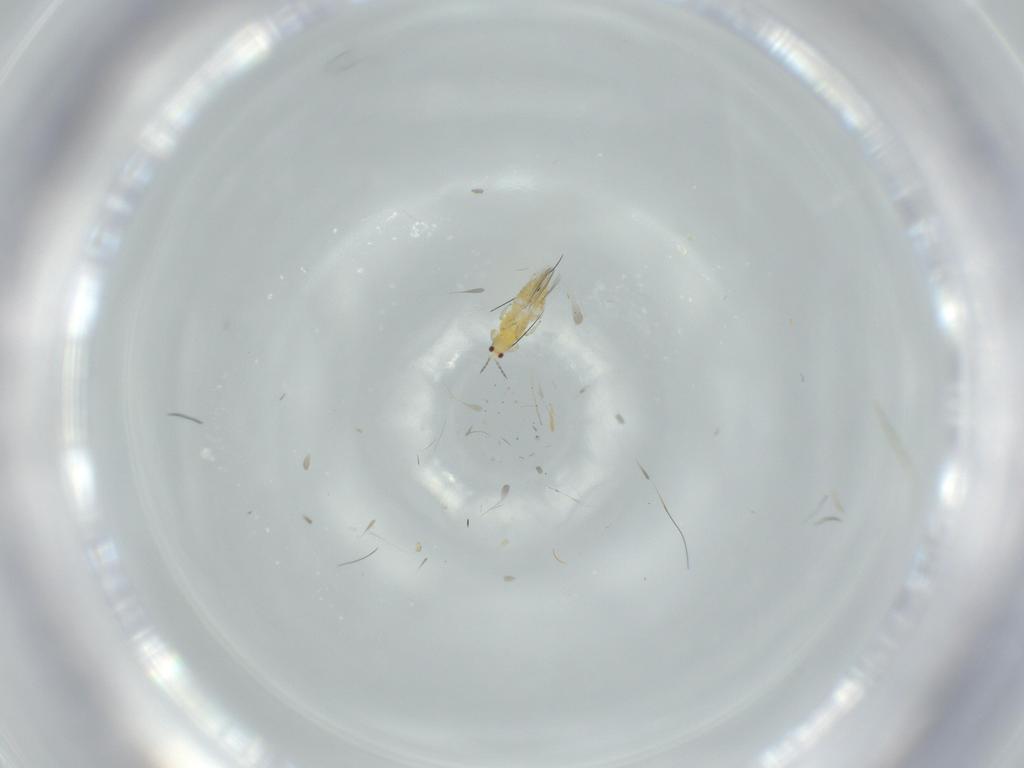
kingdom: Animalia
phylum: Arthropoda
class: Insecta
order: Thysanoptera
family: Thripidae
